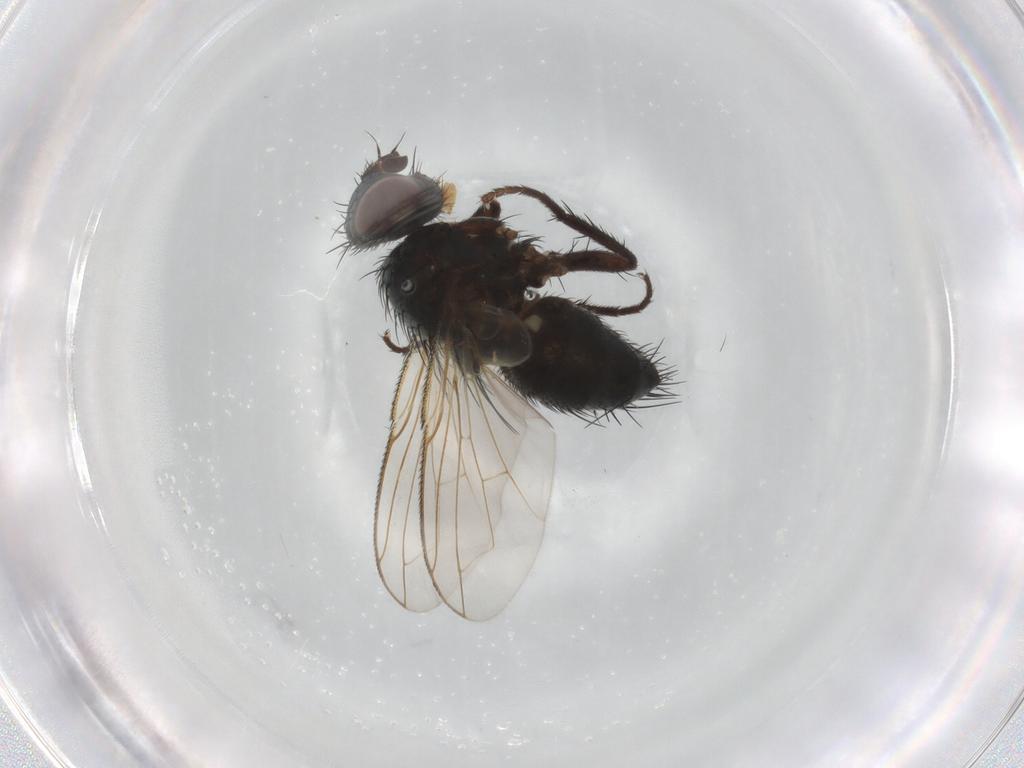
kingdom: Animalia
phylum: Arthropoda
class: Insecta
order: Diptera
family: Tachinidae
